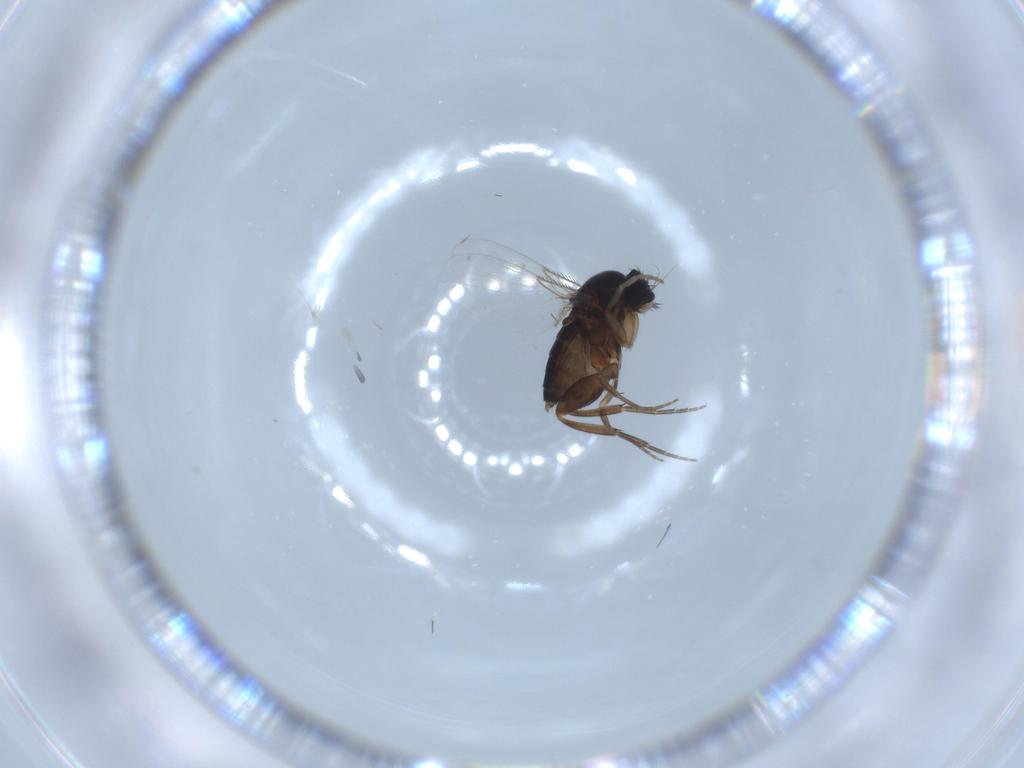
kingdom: Animalia
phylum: Arthropoda
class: Insecta
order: Diptera
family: Phoridae
